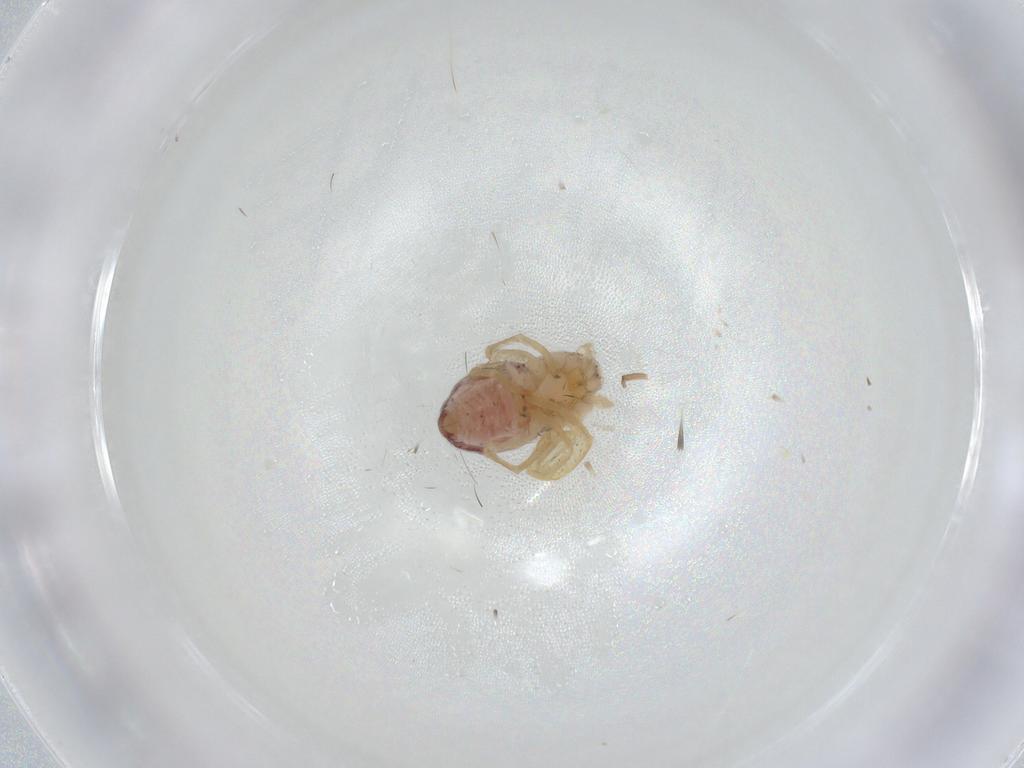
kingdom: Animalia
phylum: Arthropoda
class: Arachnida
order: Araneae
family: Philodromidae
